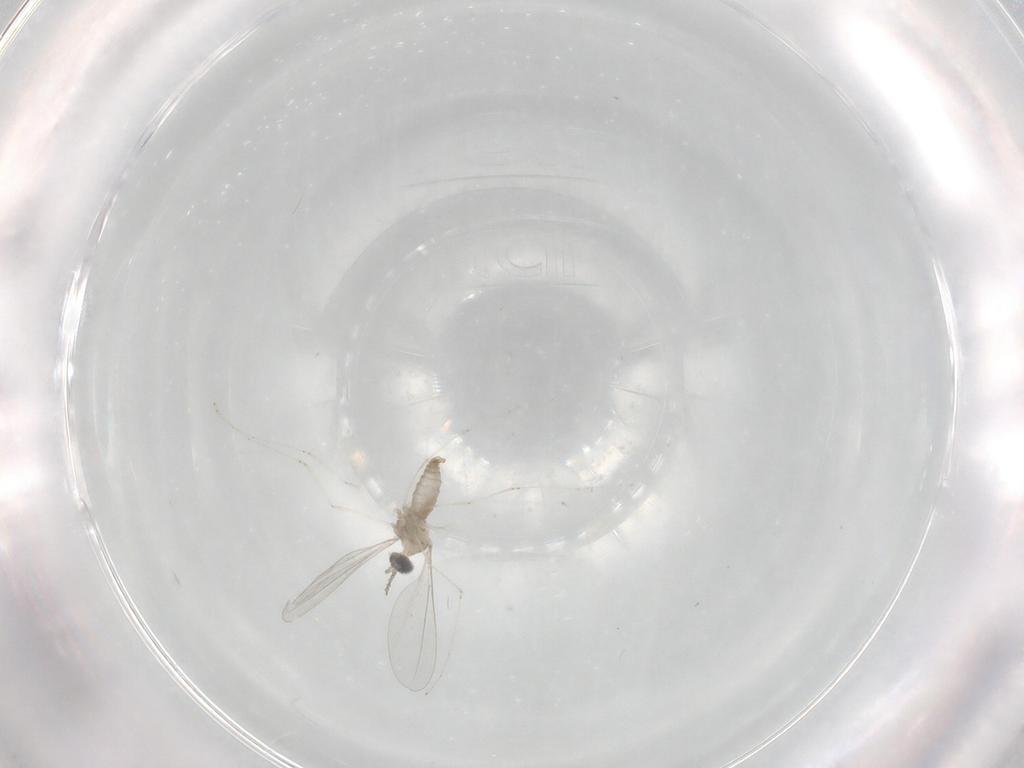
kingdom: Animalia
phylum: Arthropoda
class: Insecta
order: Diptera
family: Cecidomyiidae
